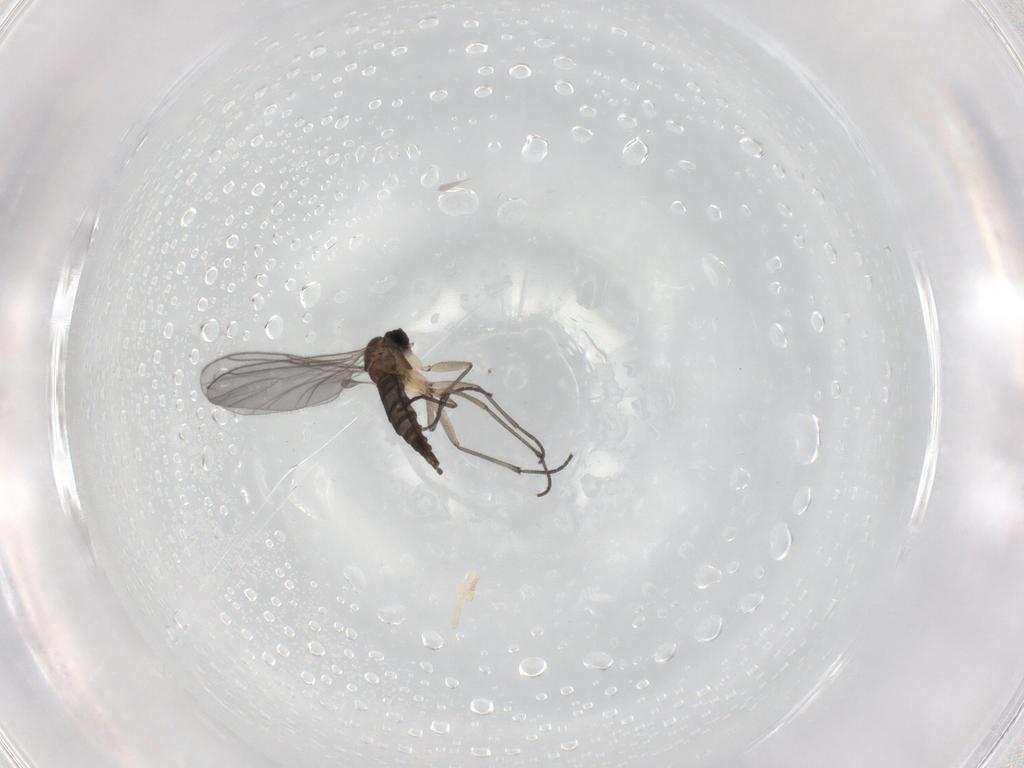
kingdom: Animalia
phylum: Arthropoda
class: Insecta
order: Diptera
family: Sciaridae
